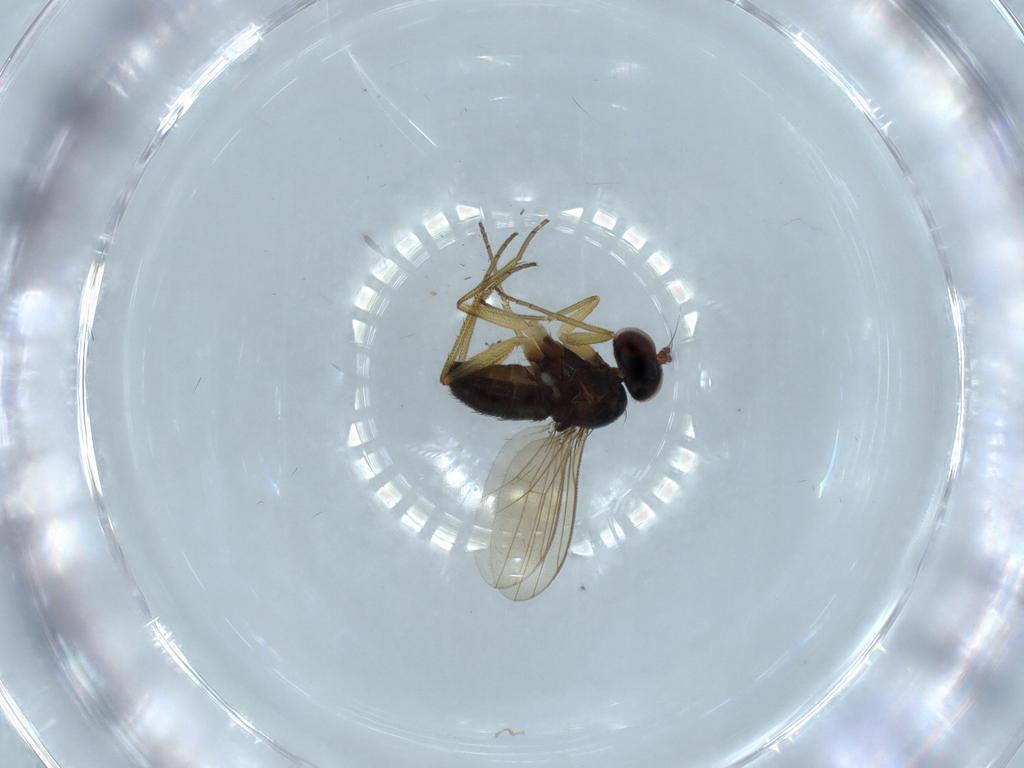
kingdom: Animalia
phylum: Arthropoda
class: Insecta
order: Diptera
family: Dolichopodidae
